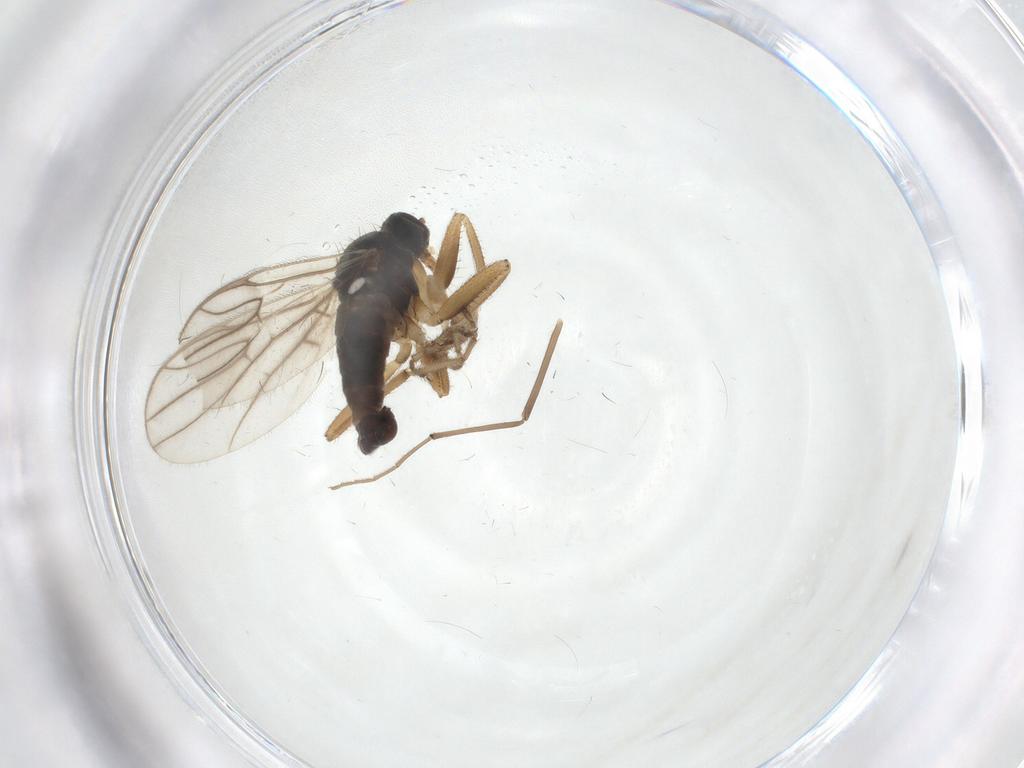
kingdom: Animalia
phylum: Arthropoda
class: Insecta
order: Diptera
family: Hybotidae
